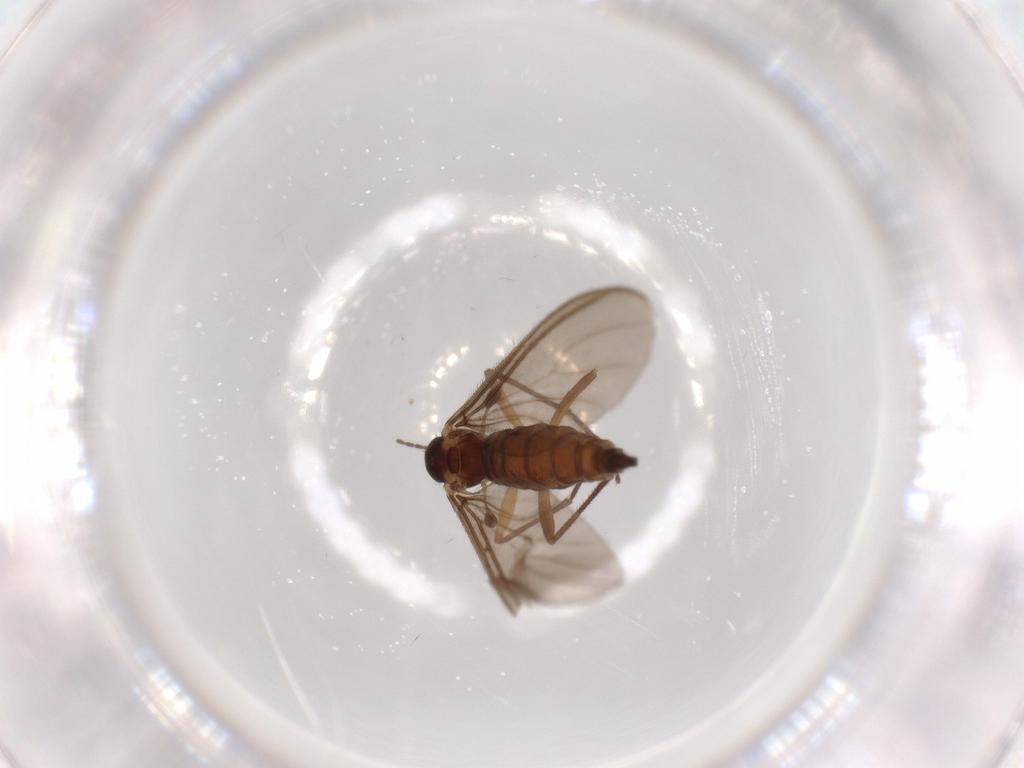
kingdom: Animalia
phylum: Arthropoda
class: Insecta
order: Diptera
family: Sciaridae
